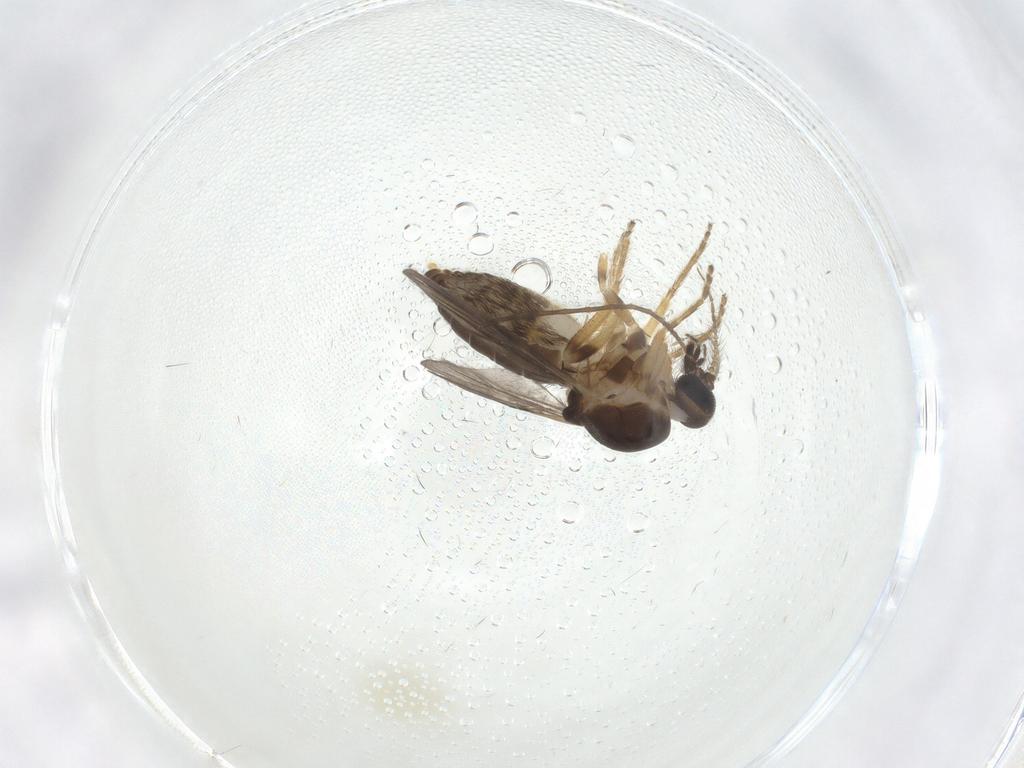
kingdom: Animalia
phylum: Arthropoda
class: Insecta
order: Diptera
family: Ceratopogonidae
